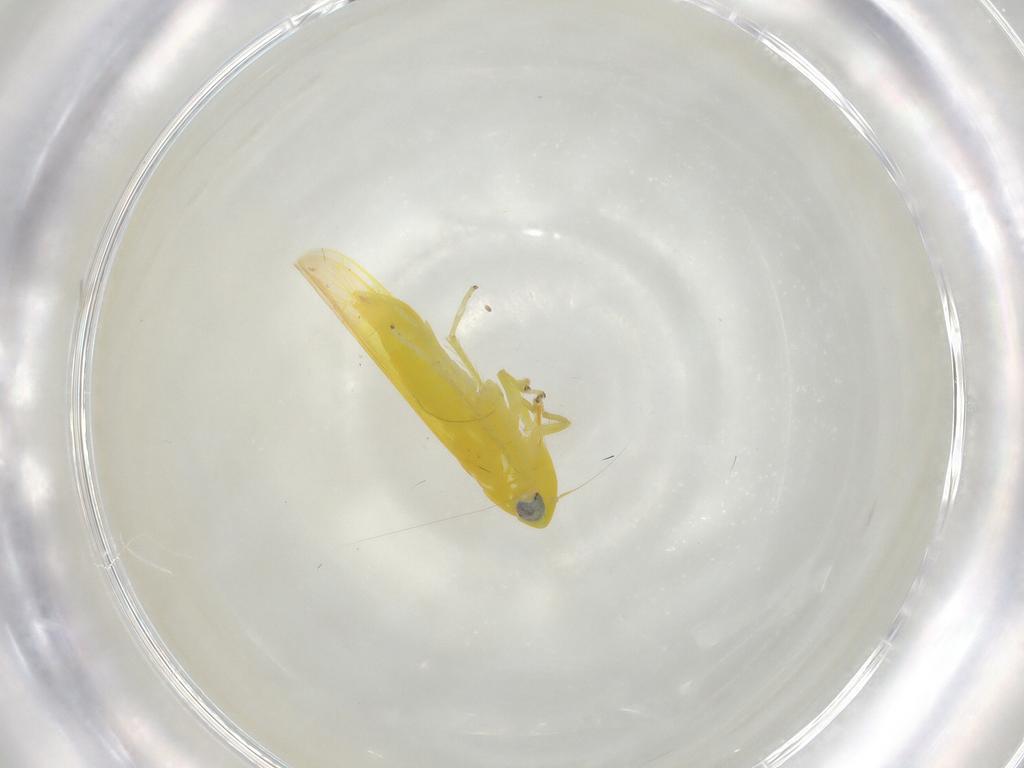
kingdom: Animalia
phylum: Arthropoda
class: Insecta
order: Hemiptera
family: Cicadellidae
